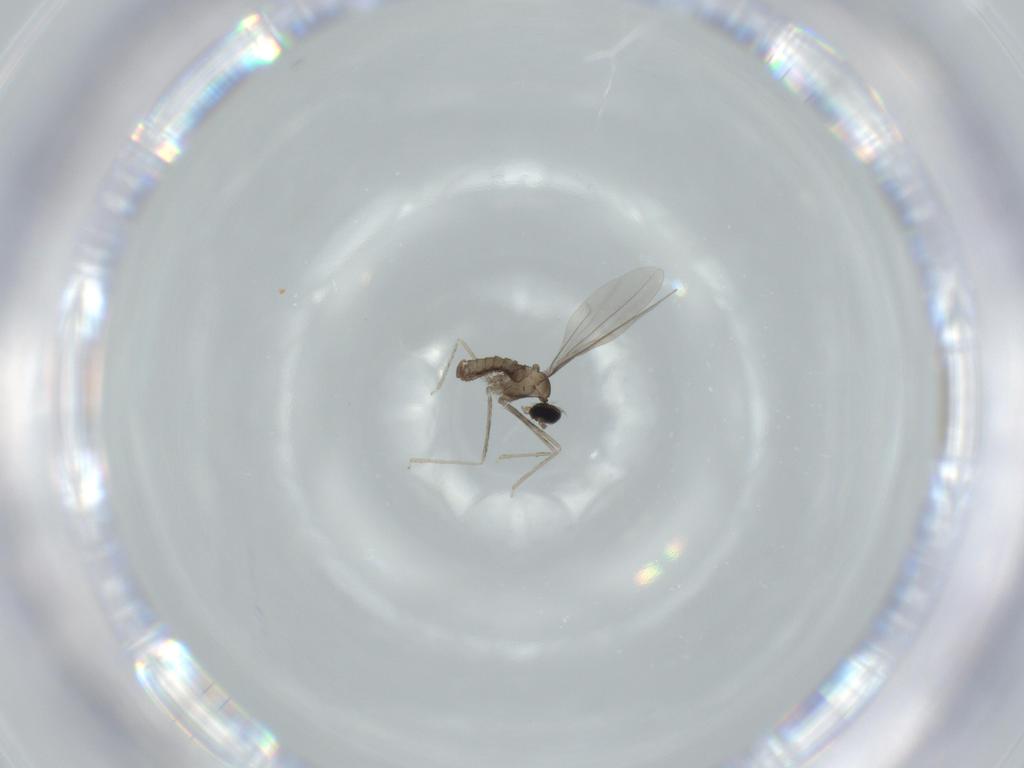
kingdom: Animalia
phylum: Arthropoda
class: Insecta
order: Diptera
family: Cecidomyiidae
